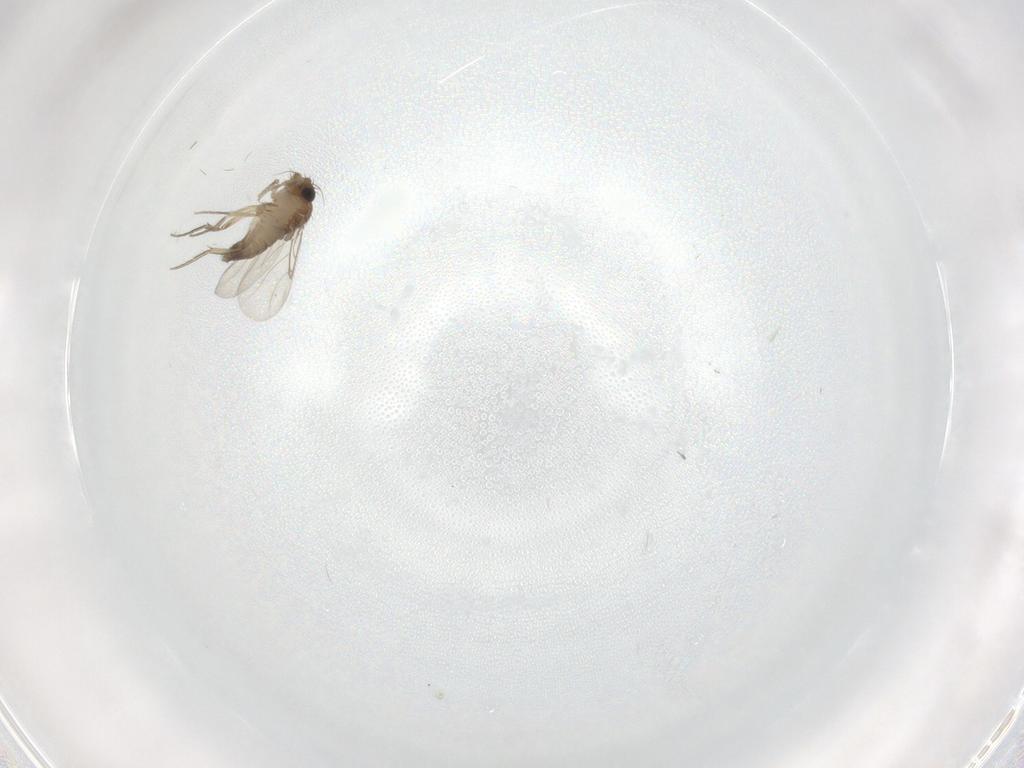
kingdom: Animalia
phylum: Arthropoda
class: Insecta
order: Diptera
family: Phoridae
